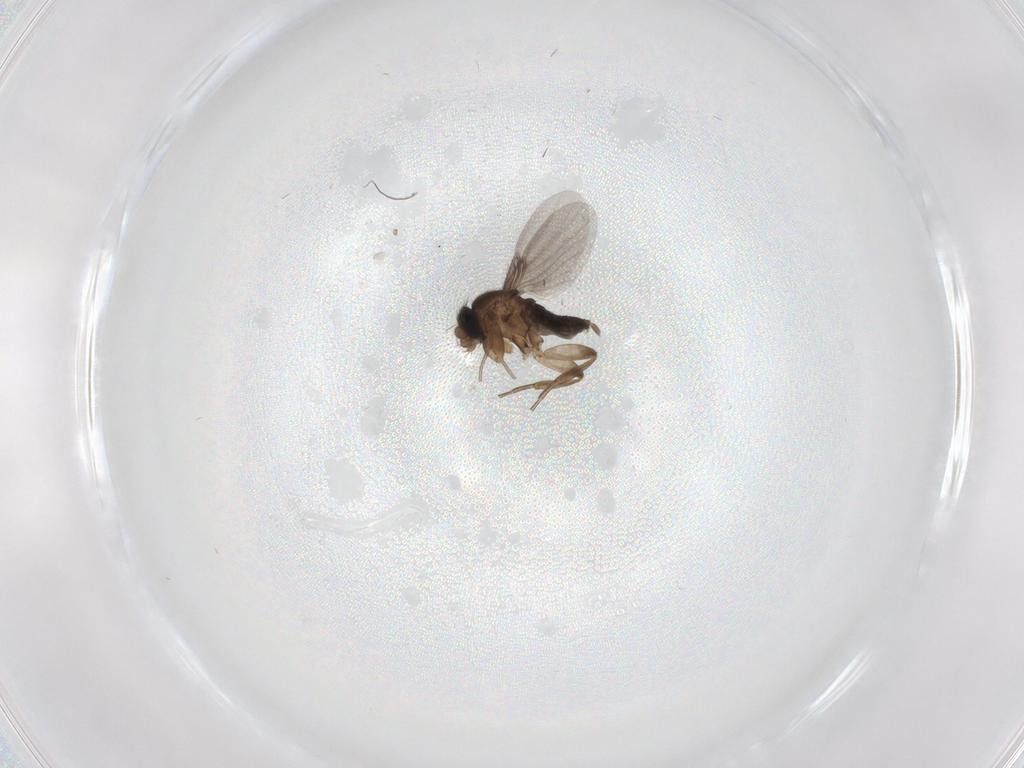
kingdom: Animalia
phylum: Arthropoda
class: Insecta
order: Diptera
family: Phoridae
